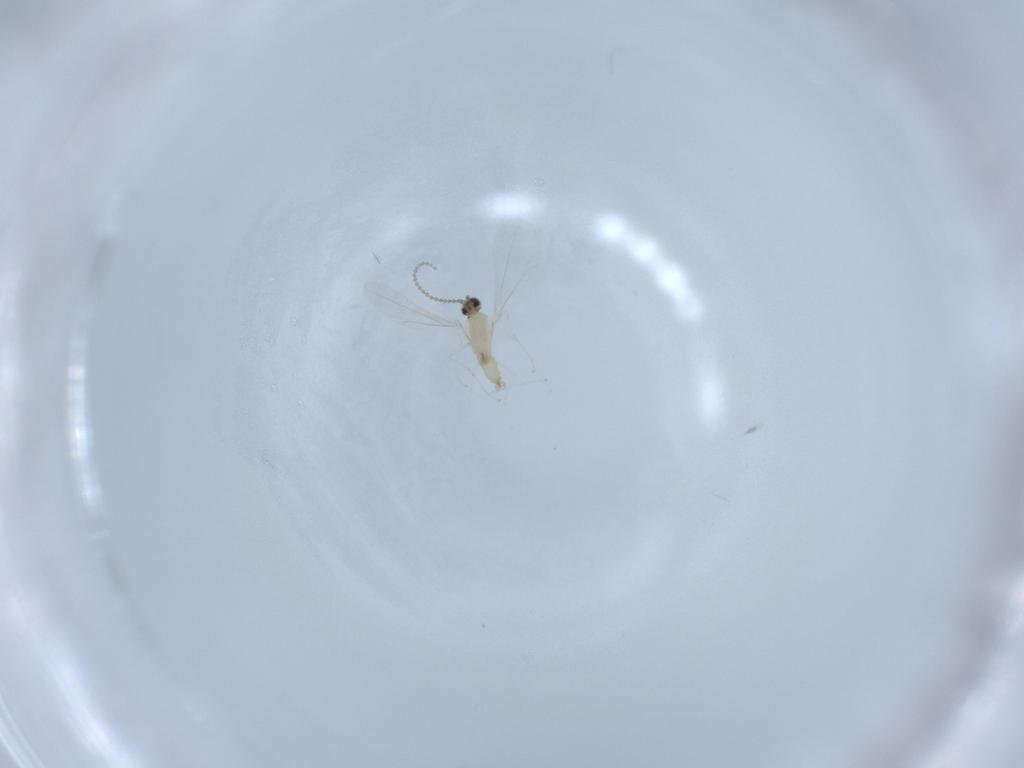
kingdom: Animalia
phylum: Arthropoda
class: Insecta
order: Diptera
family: Cecidomyiidae
